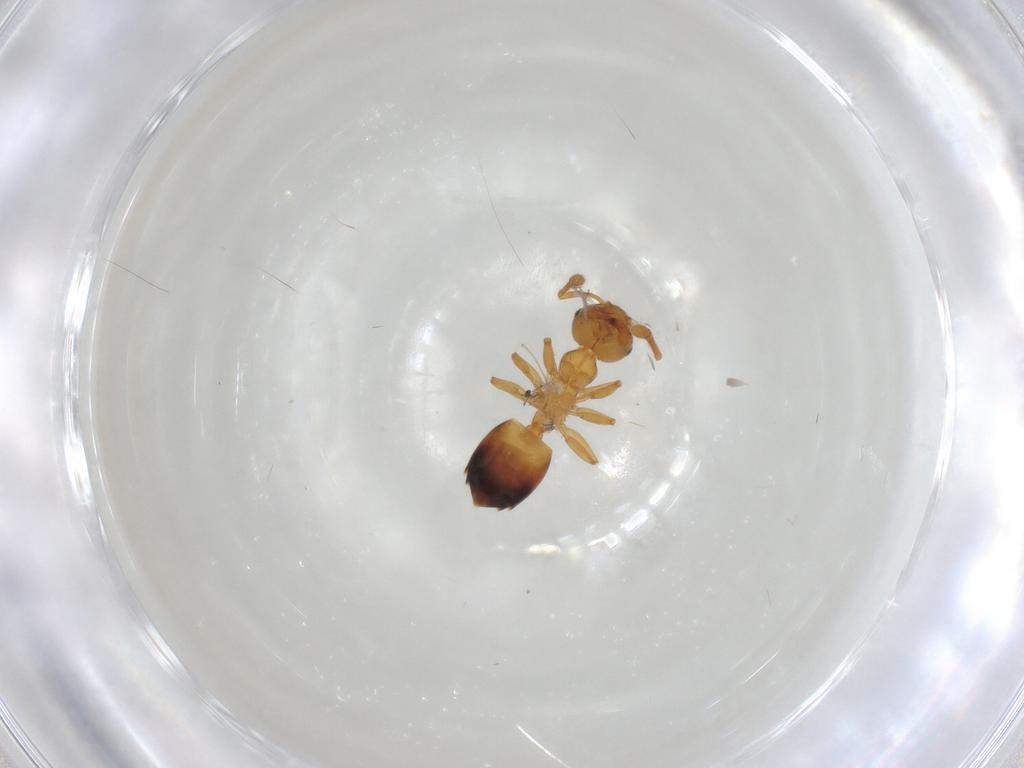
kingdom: Animalia
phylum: Arthropoda
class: Insecta
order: Hymenoptera
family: Formicidae
